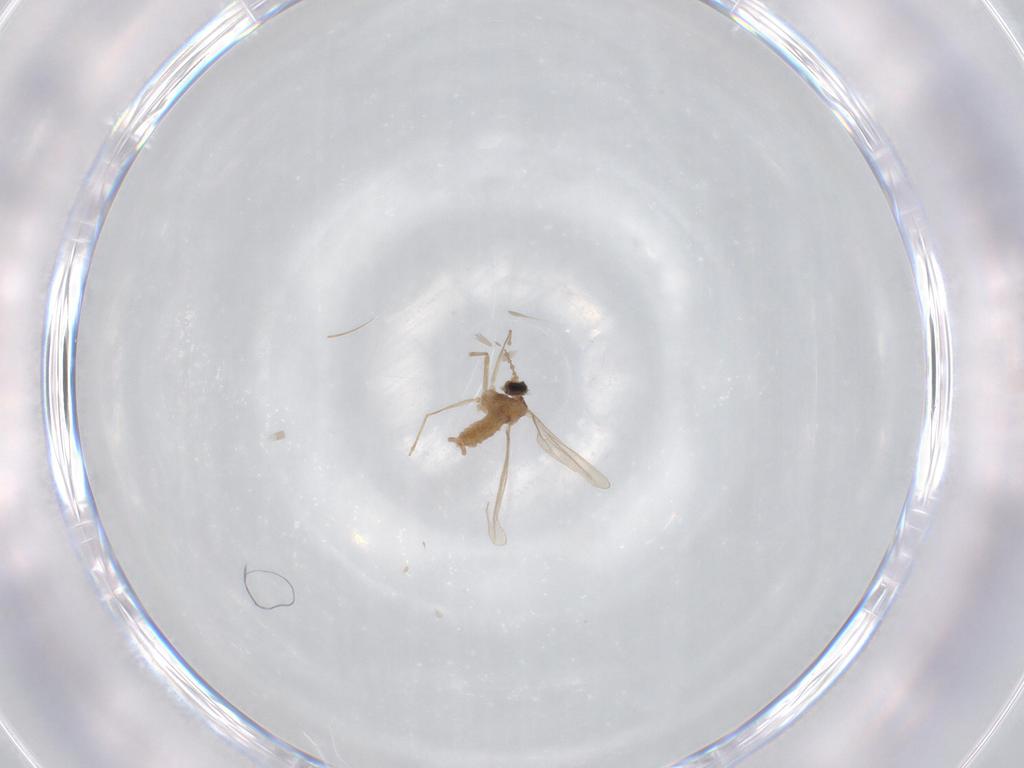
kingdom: Animalia
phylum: Arthropoda
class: Insecta
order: Diptera
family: Cecidomyiidae
